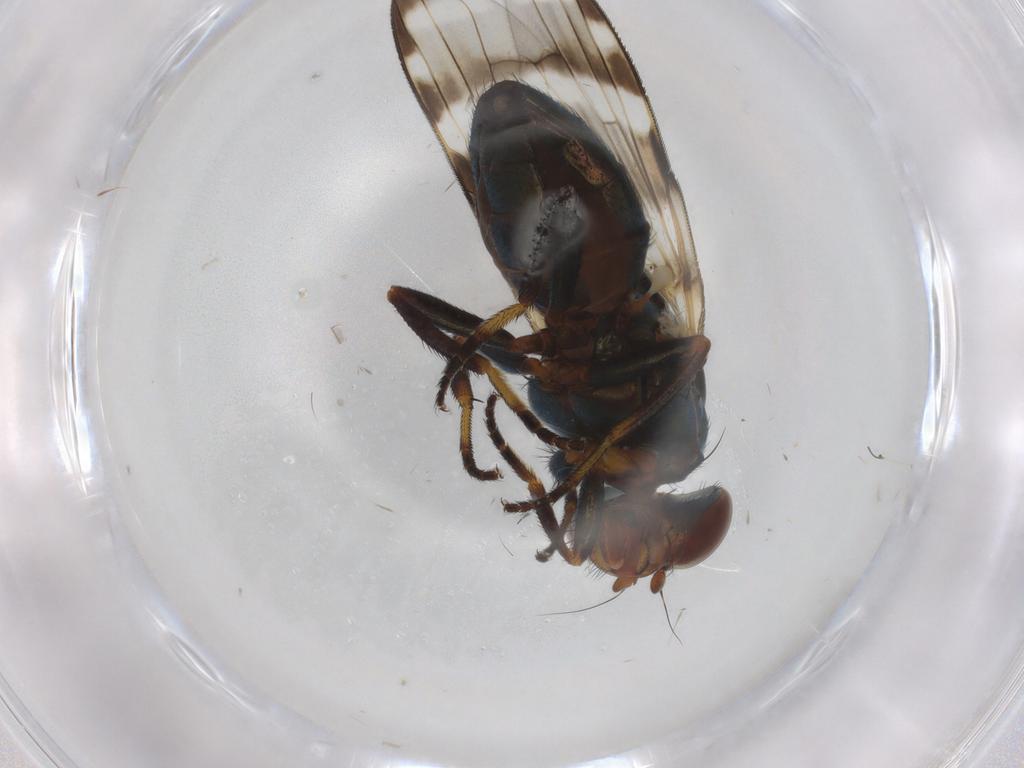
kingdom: Animalia
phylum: Arthropoda
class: Insecta
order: Diptera
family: Ulidiidae
